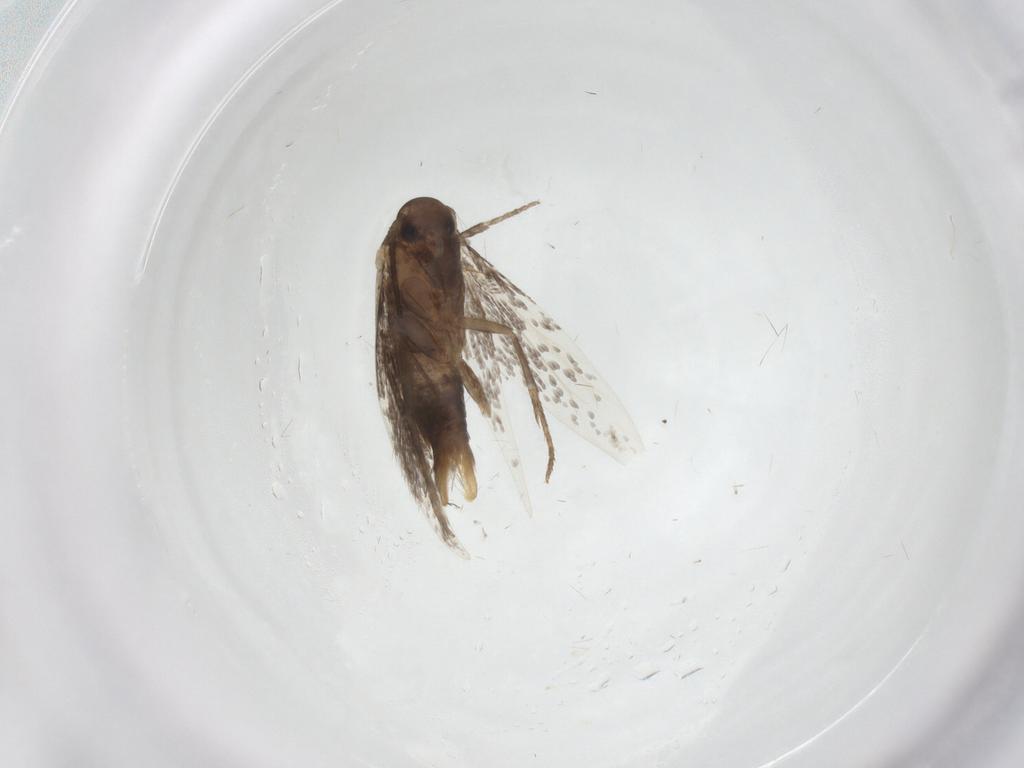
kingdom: Animalia
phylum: Arthropoda
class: Insecta
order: Lepidoptera
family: Elachistidae
